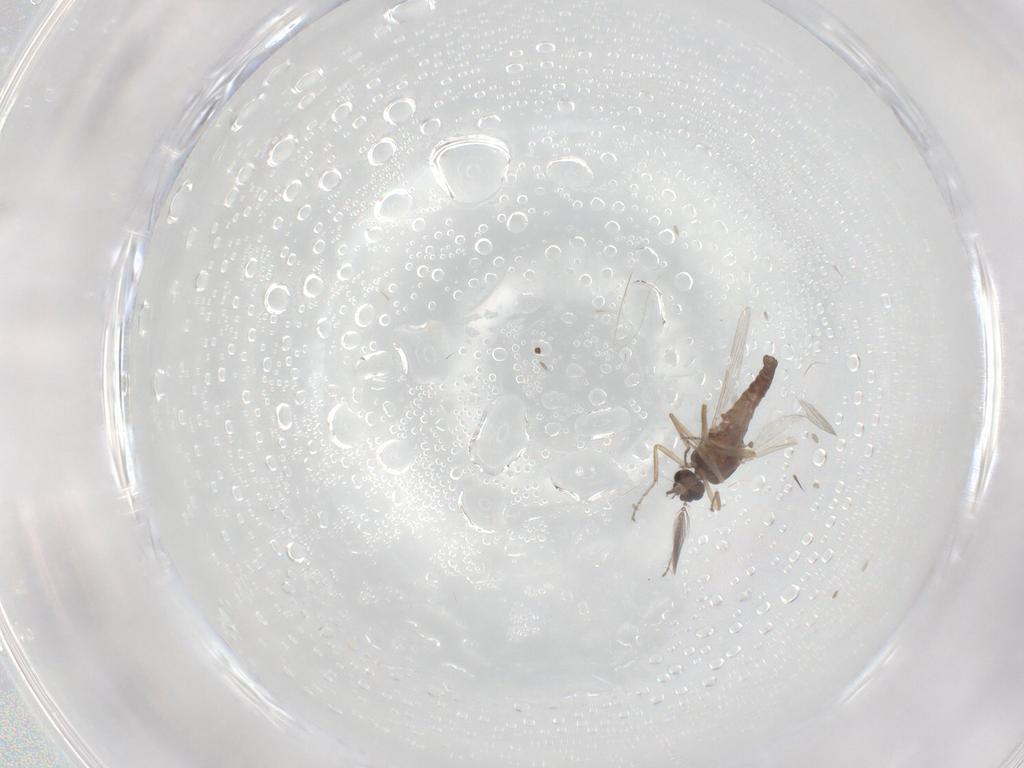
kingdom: Animalia
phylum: Arthropoda
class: Insecta
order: Diptera
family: Ceratopogonidae
